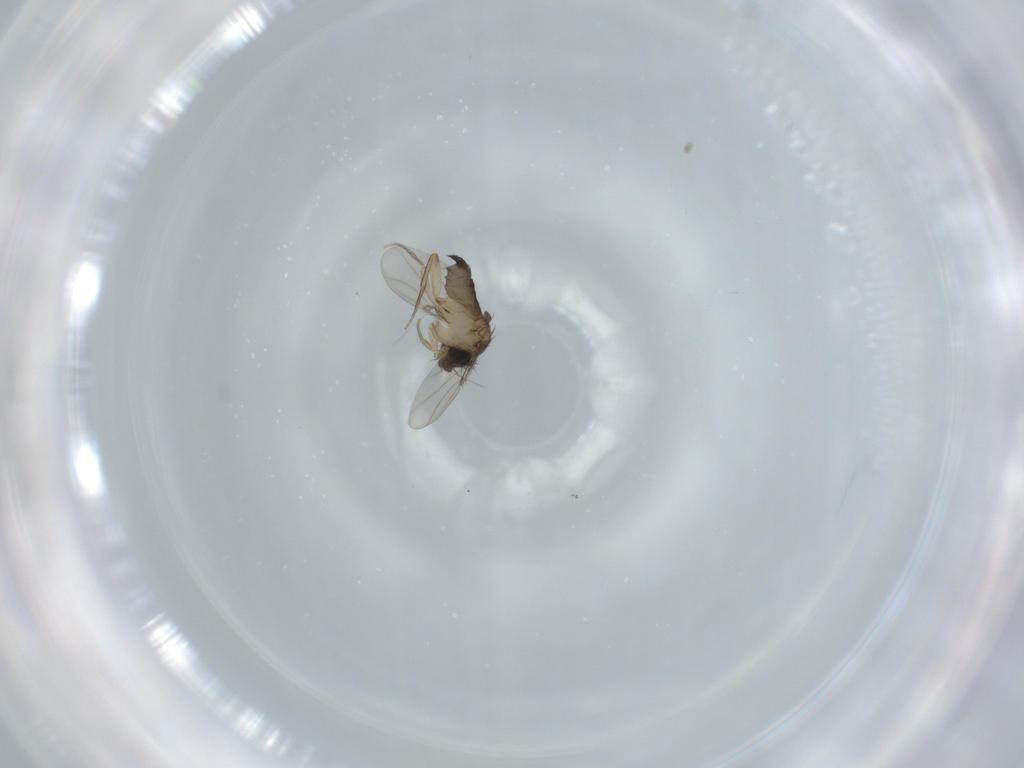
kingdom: Animalia
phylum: Arthropoda
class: Insecta
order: Diptera
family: Phoridae
